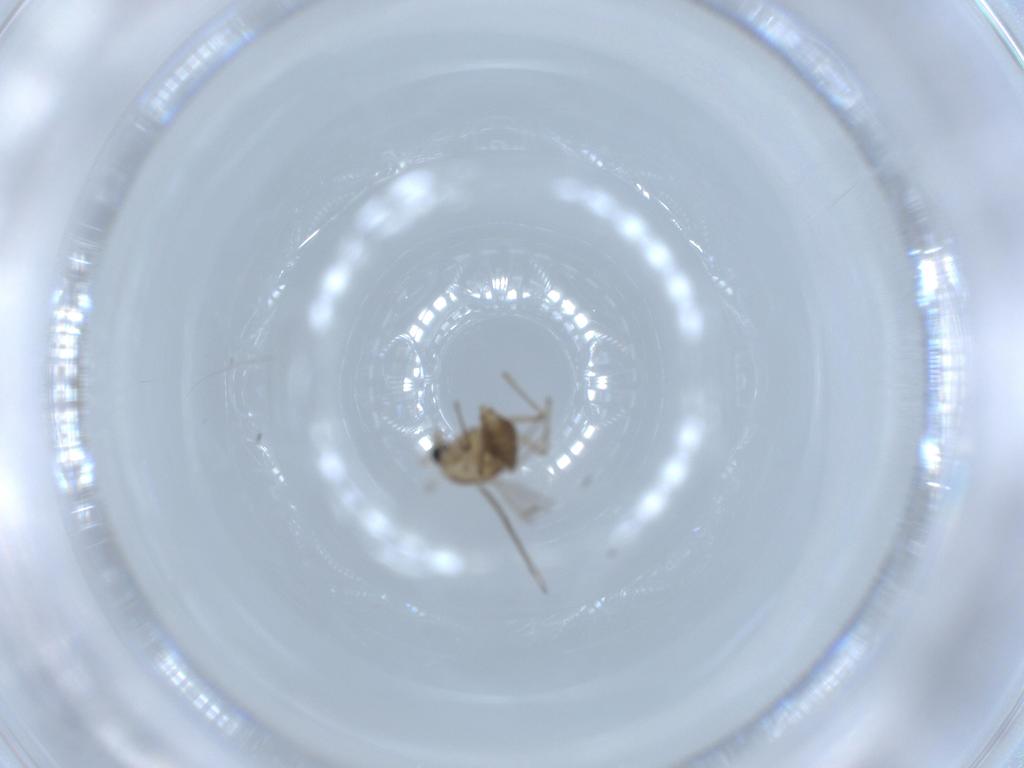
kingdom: Animalia
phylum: Arthropoda
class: Insecta
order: Diptera
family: Chironomidae
